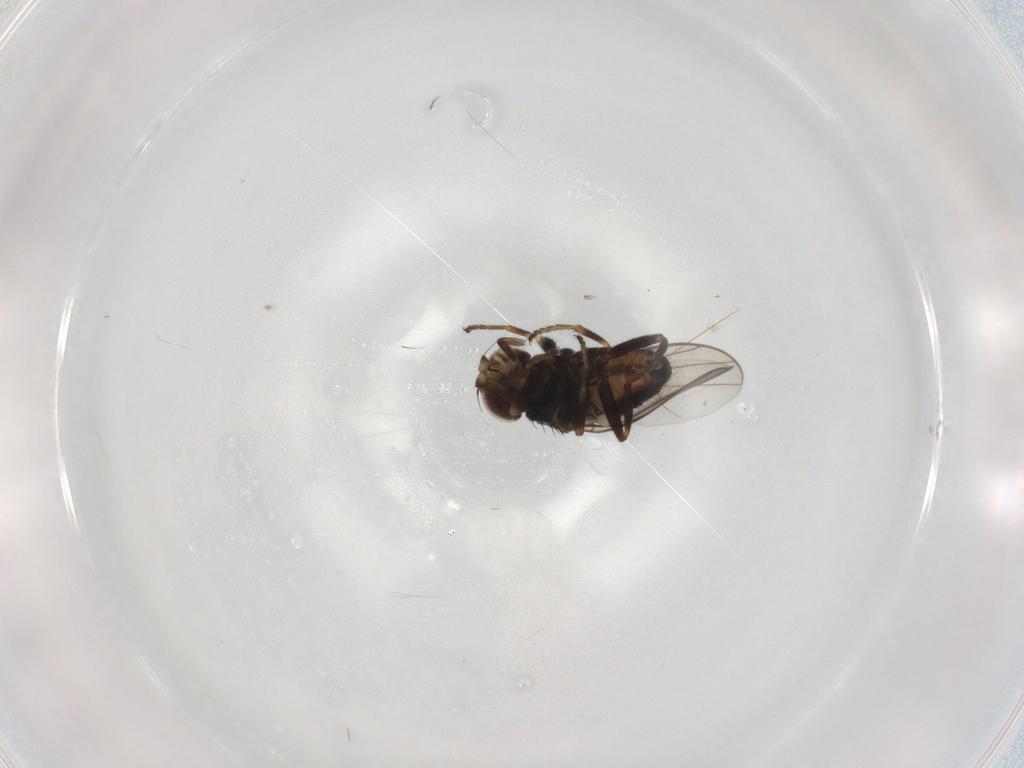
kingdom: Animalia
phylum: Arthropoda
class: Insecta
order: Diptera
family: Chloropidae
